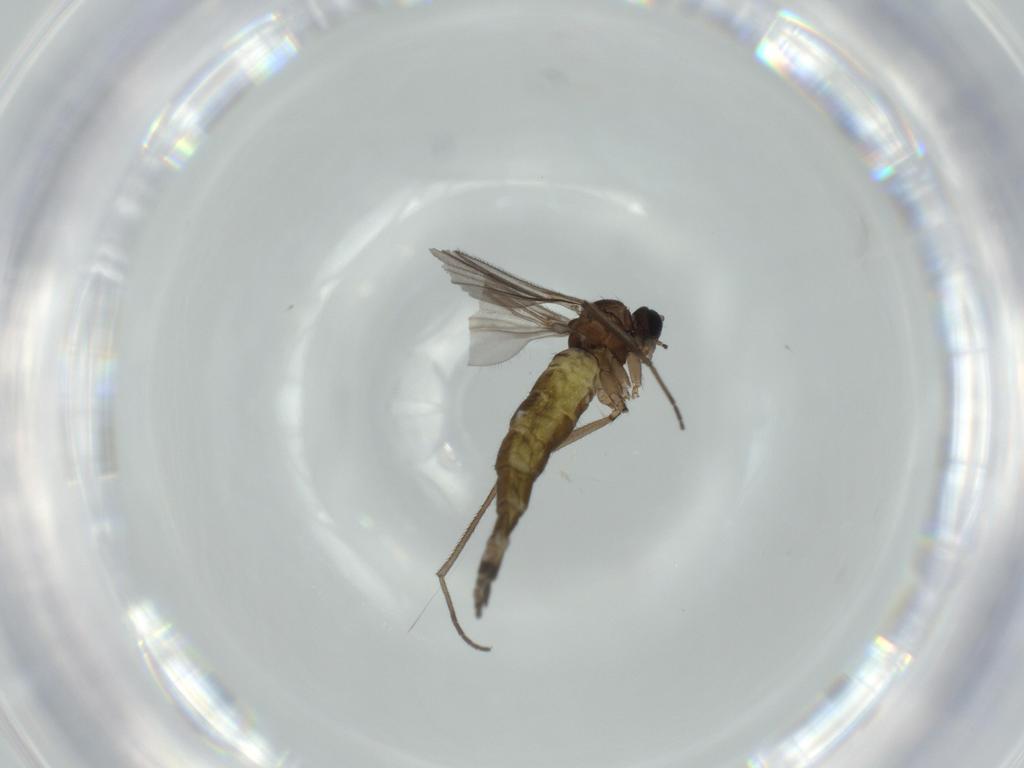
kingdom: Animalia
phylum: Arthropoda
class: Insecta
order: Diptera
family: Sciaridae
